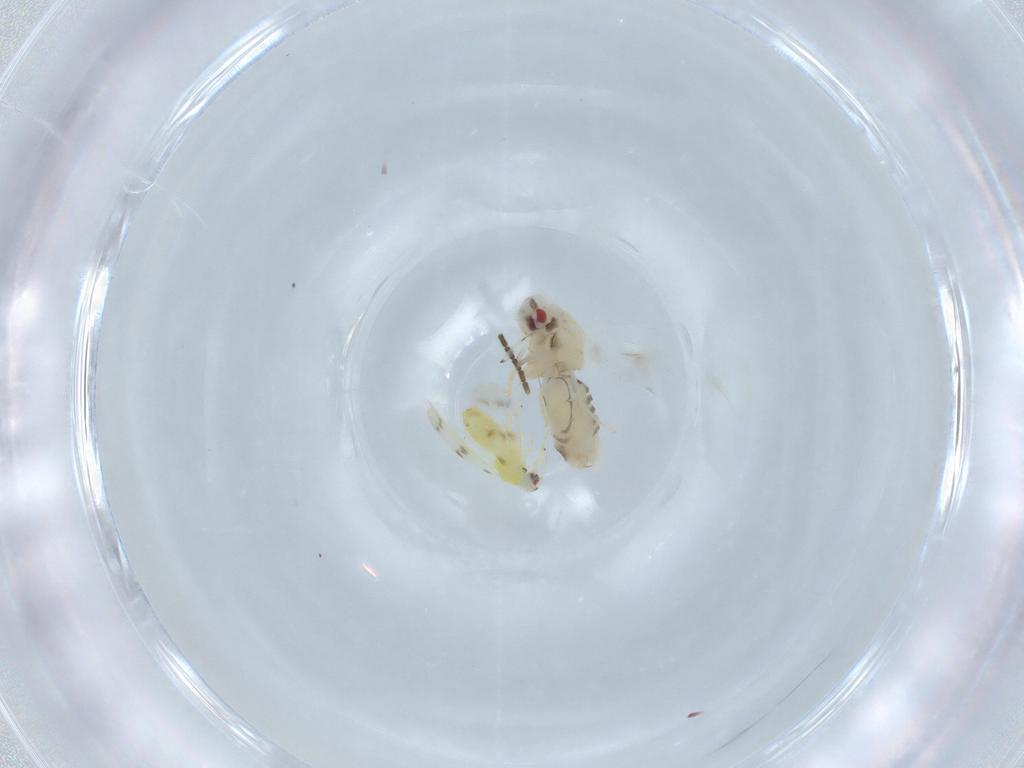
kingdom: Animalia
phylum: Arthropoda
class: Insecta
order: Hemiptera
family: Aleyrodidae
